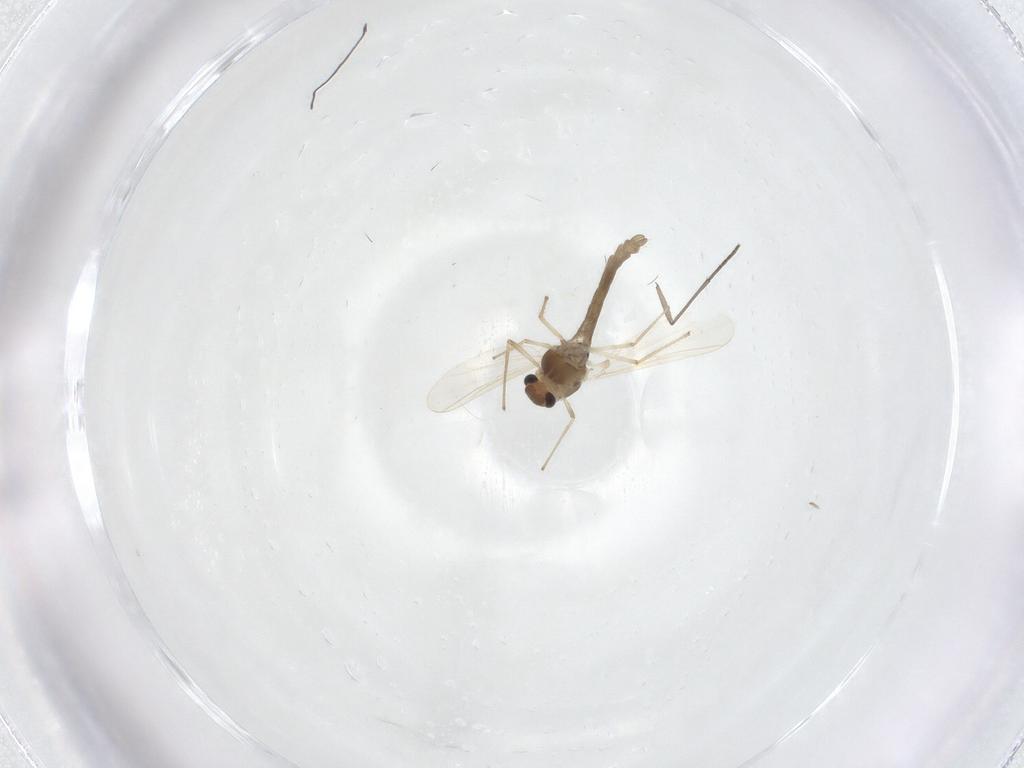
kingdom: Animalia
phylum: Arthropoda
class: Insecta
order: Diptera
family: Chironomidae
